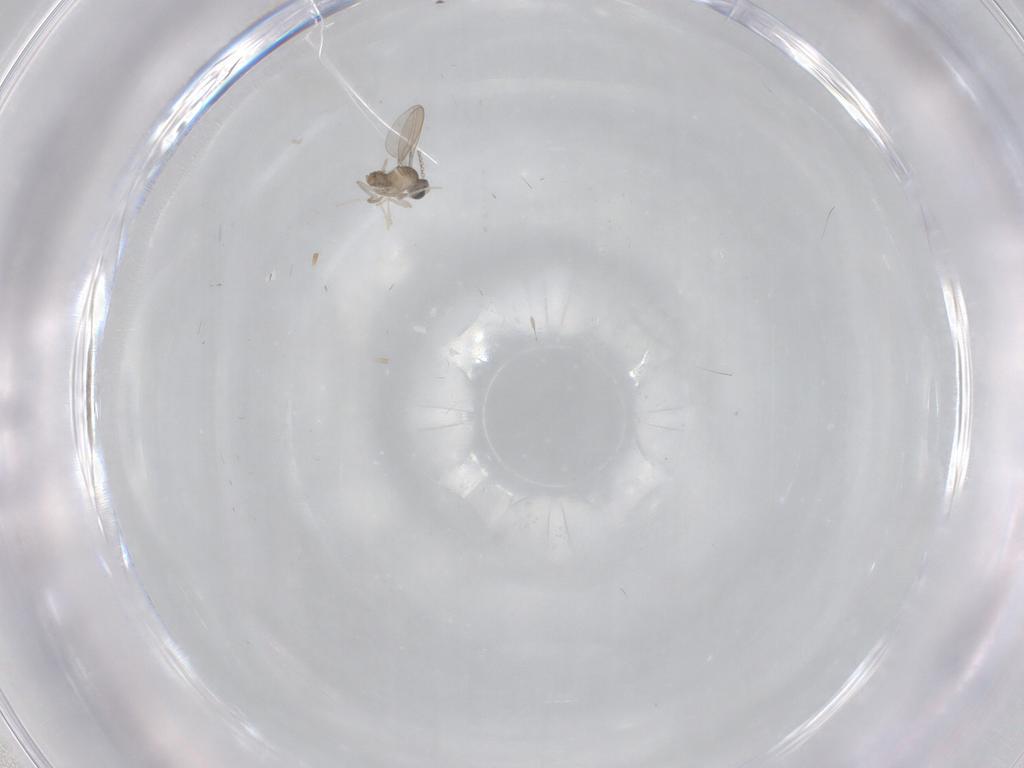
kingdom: Animalia
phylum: Arthropoda
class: Insecta
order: Diptera
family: Cecidomyiidae
